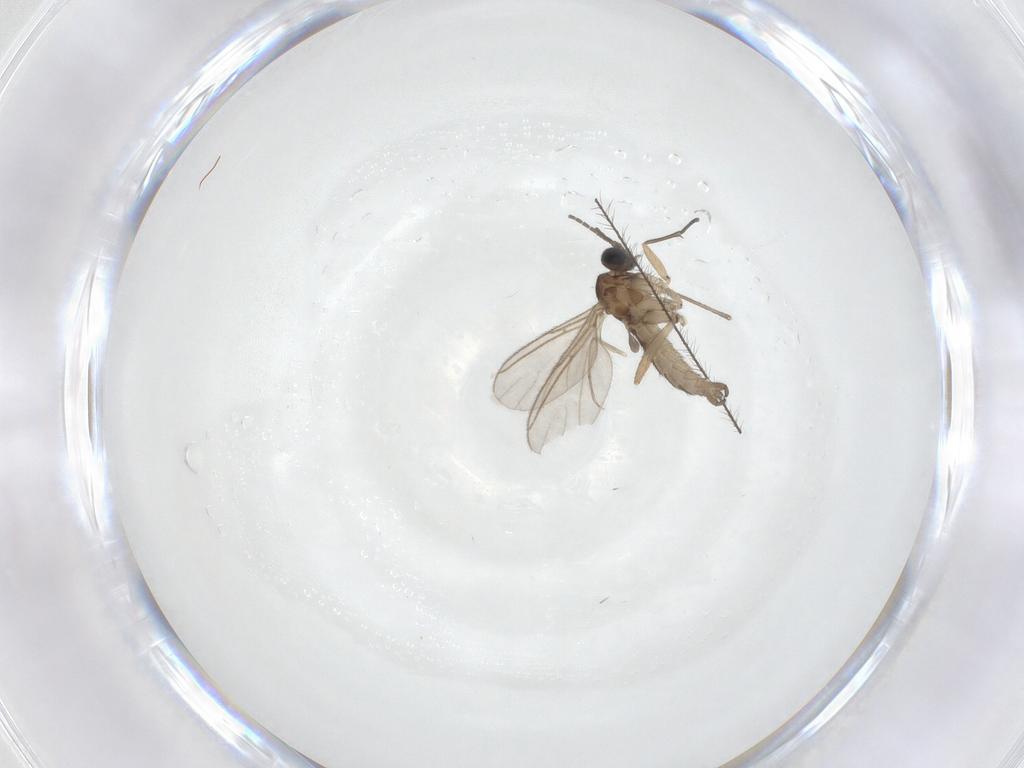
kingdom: Animalia
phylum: Arthropoda
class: Insecta
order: Diptera
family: Sciaridae
